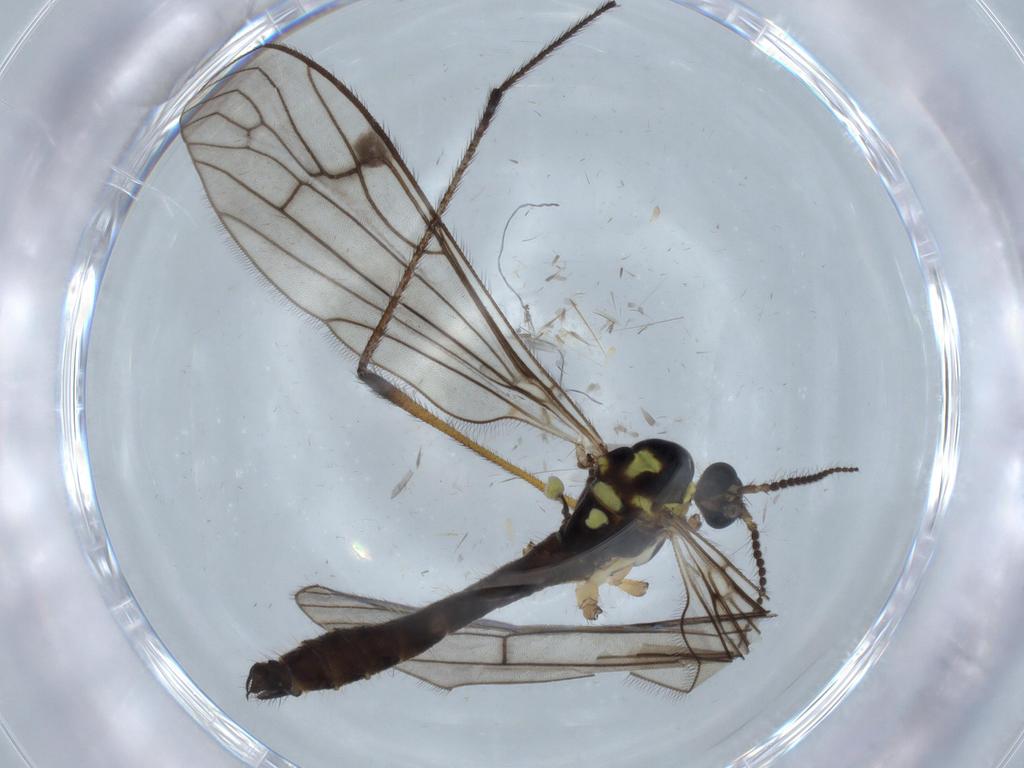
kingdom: Animalia
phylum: Arthropoda
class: Insecta
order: Diptera
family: Limoniidae
